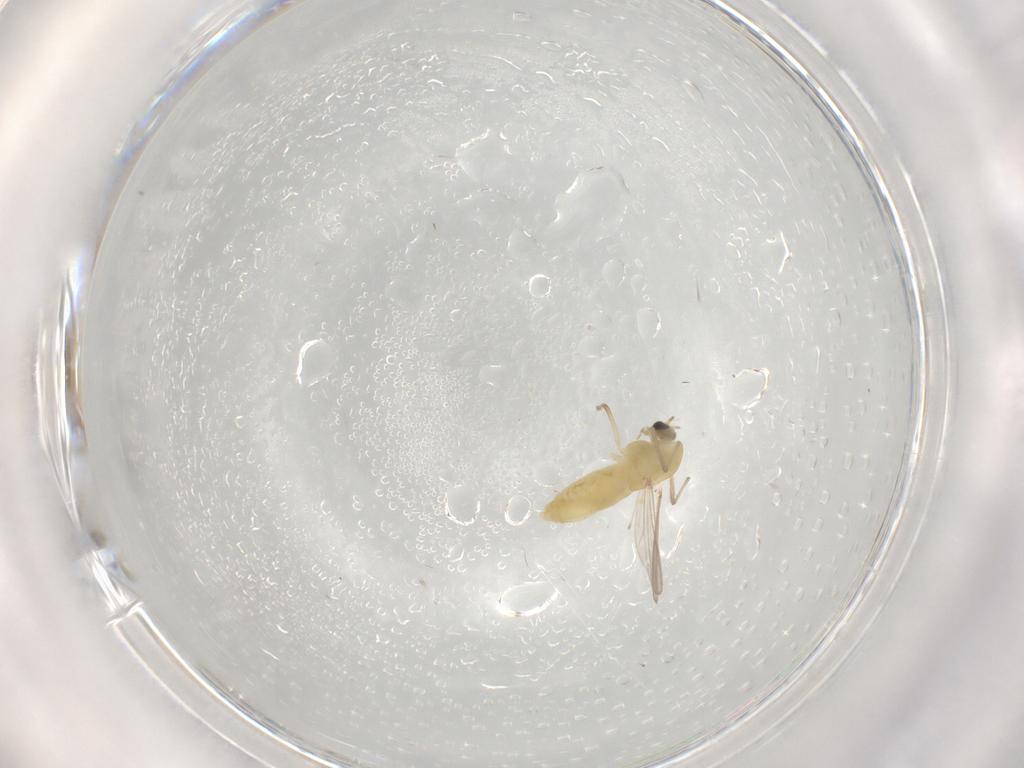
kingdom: Animalia
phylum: Arthropoda
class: Insecta
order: Diptera
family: Chironomidae
